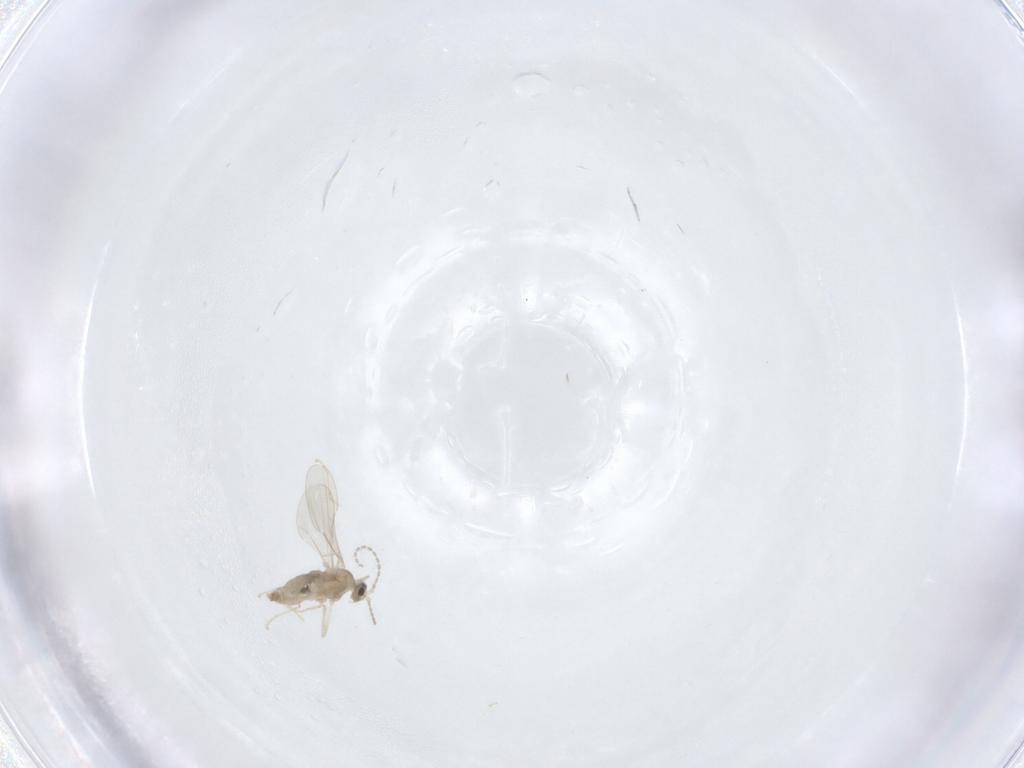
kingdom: Animalia
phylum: Arthropoda
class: Insecta
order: Diptera
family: Cecidomyiidae
